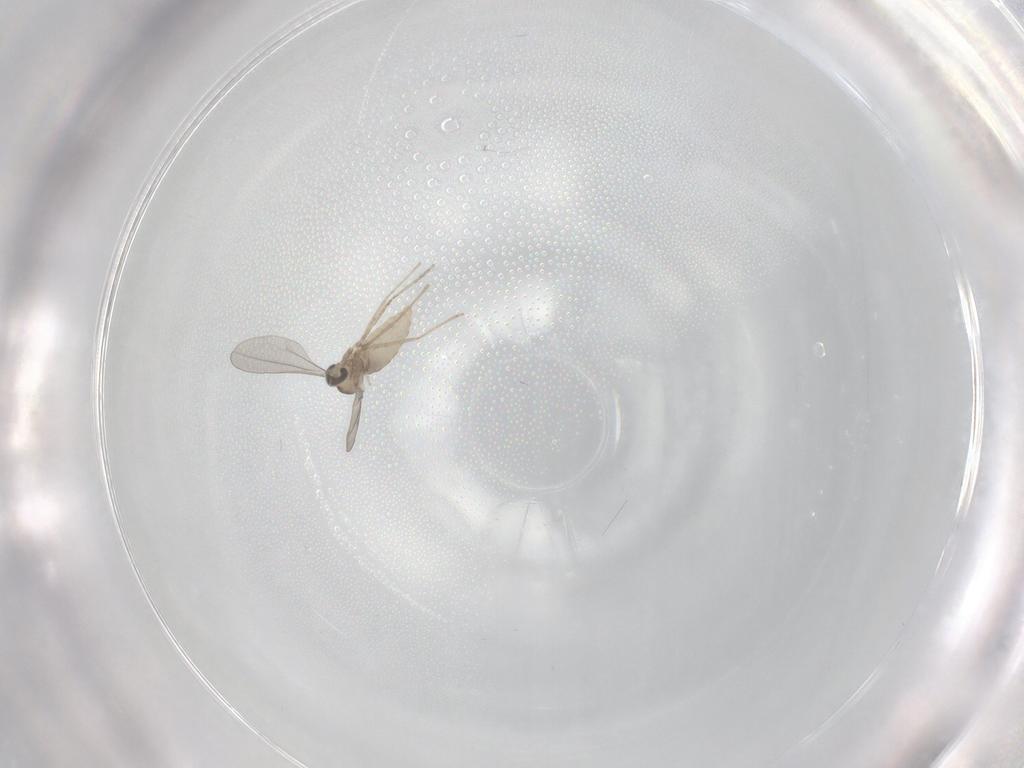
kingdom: Animalia
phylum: Arthropoda
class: Insecta
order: Diptera
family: Cecidomyiidae
